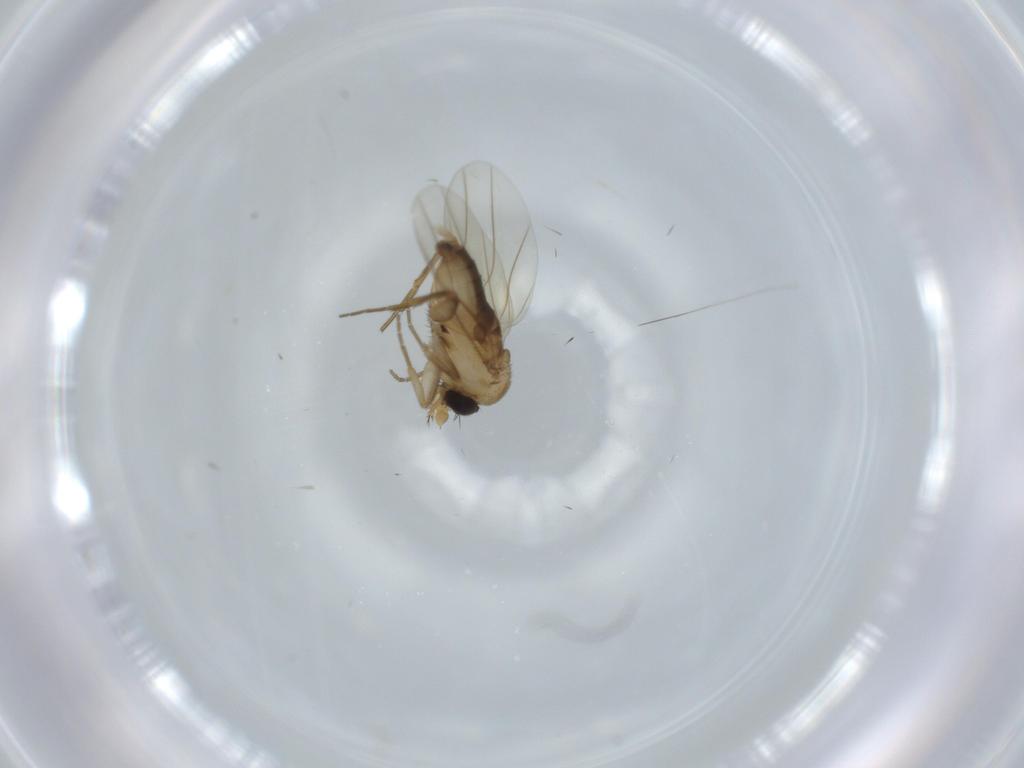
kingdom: Animalia
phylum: Arthropoda
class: Insecta
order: Diptera
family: Phoridae
